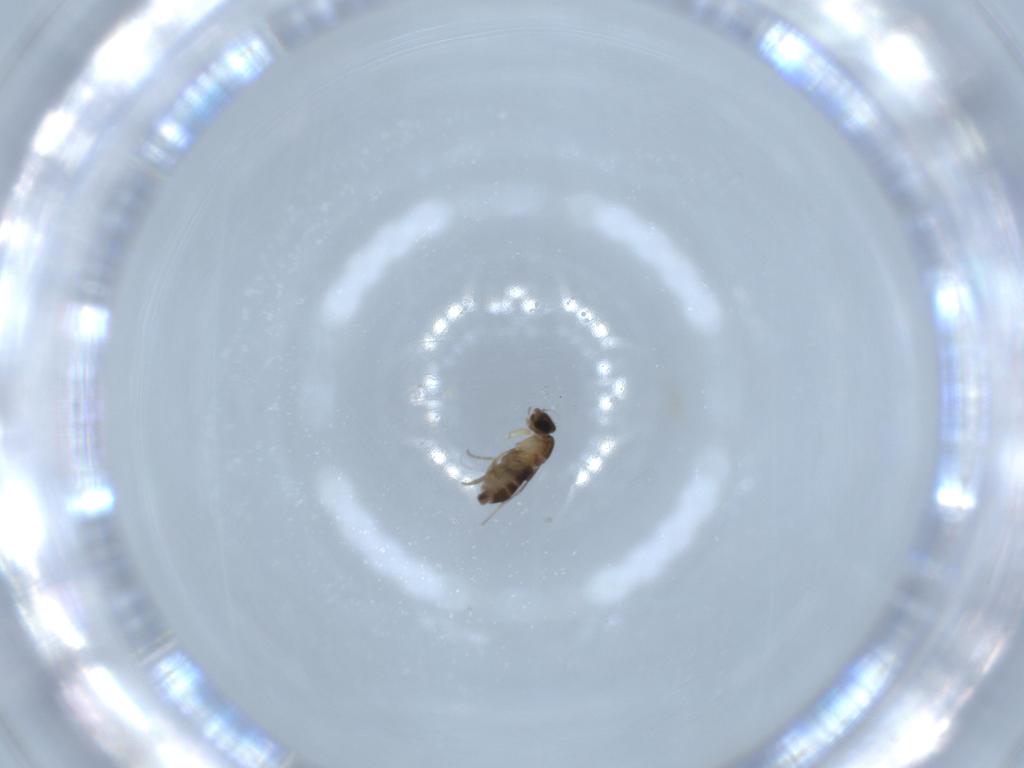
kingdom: Animalia
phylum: Arthropoda
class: Insecta
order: Diptera
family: Phoridae
